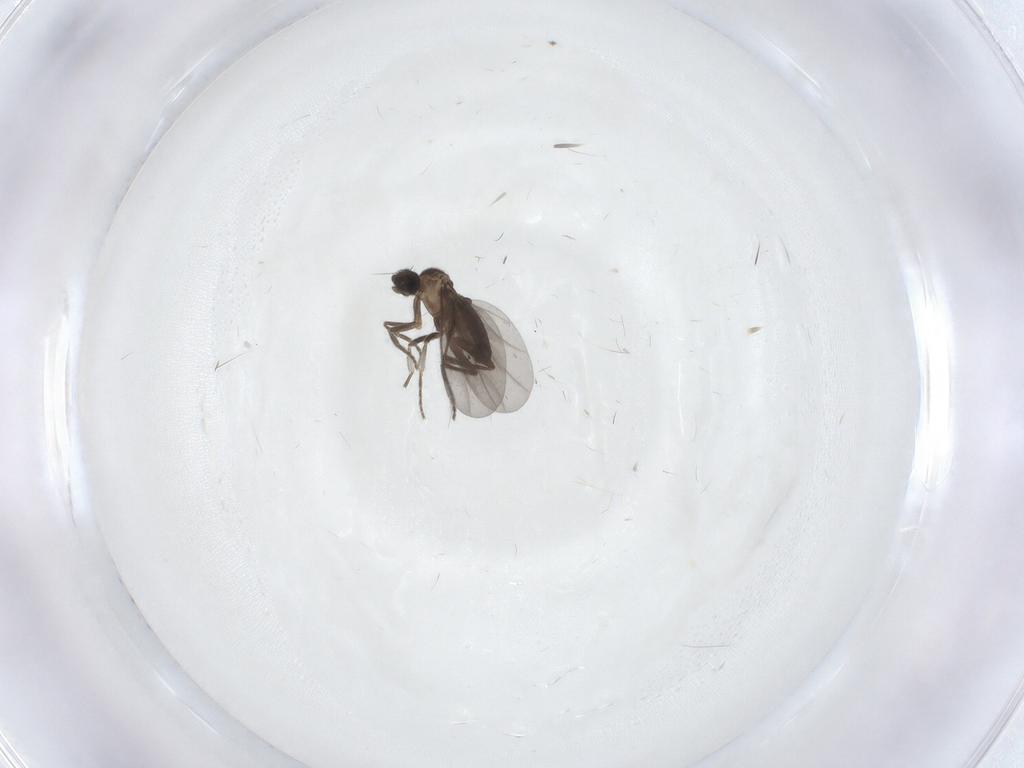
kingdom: Animalia
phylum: Arthropoda
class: Insecta
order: Diptera
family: Phoridae
